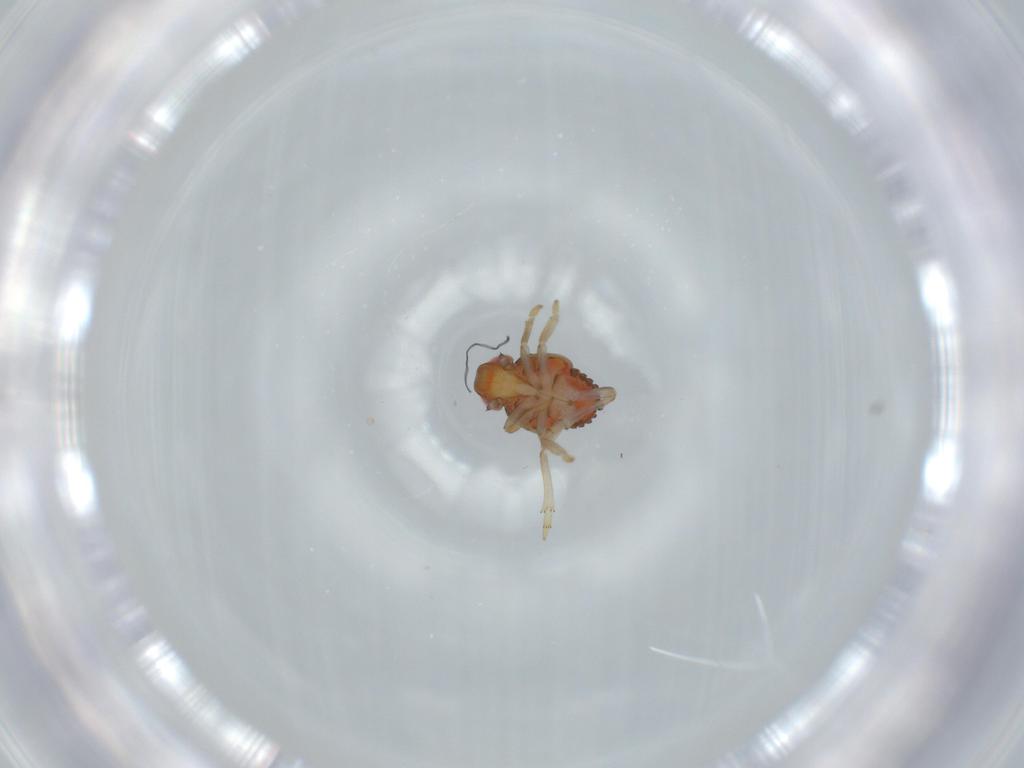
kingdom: Animalia
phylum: Arthropoda
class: Insecta
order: Hemiptera
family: Issidae
